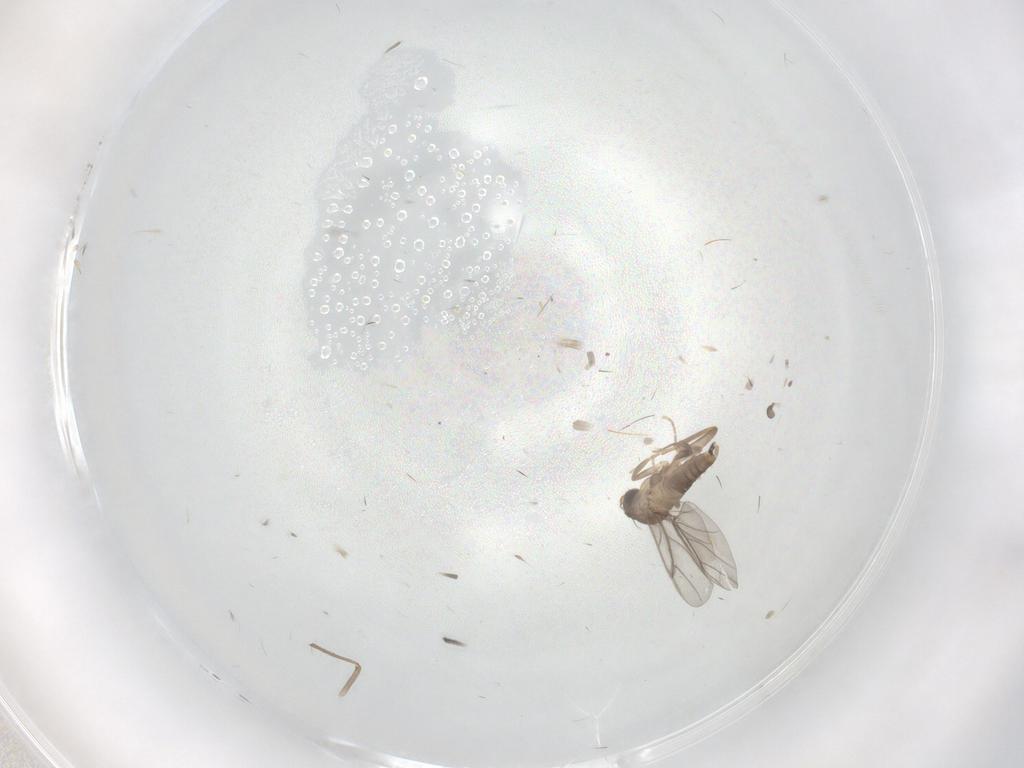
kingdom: Animalia
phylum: Arthropoda
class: Insecta
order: Diptera
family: Chironomidae
